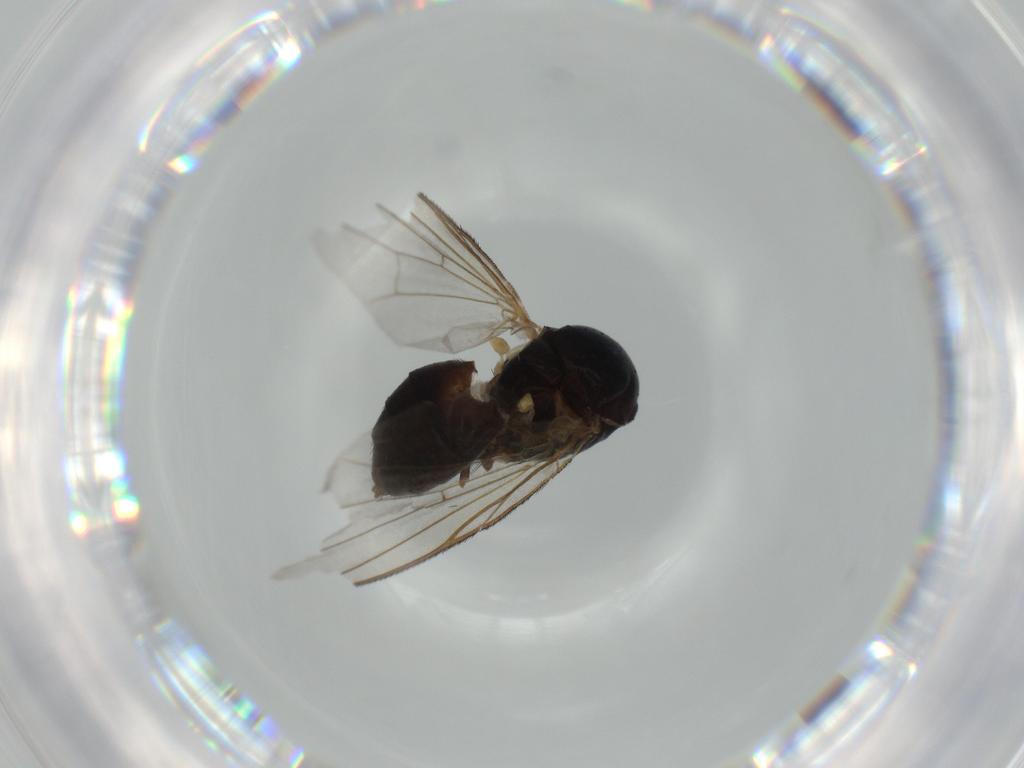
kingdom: Animalia
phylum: Arthropoda
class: Insecta
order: Diptera
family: Fannia
